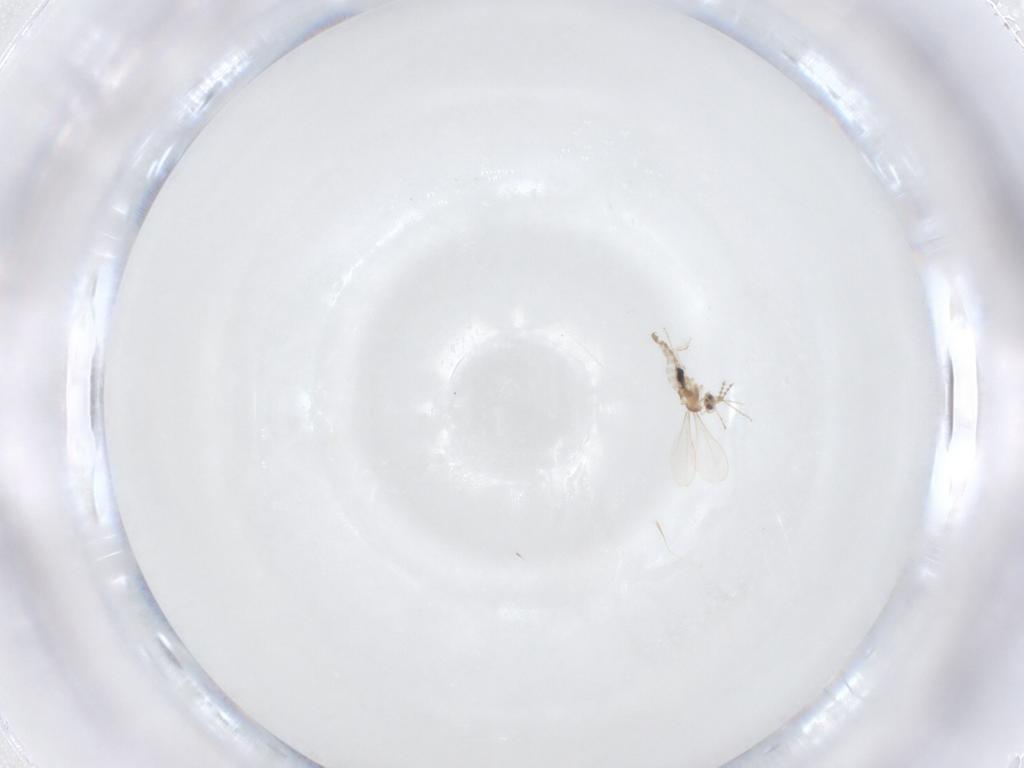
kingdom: Animalia
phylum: Arthropoda
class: Insecta
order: Diptera
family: Cecidomyiidae
